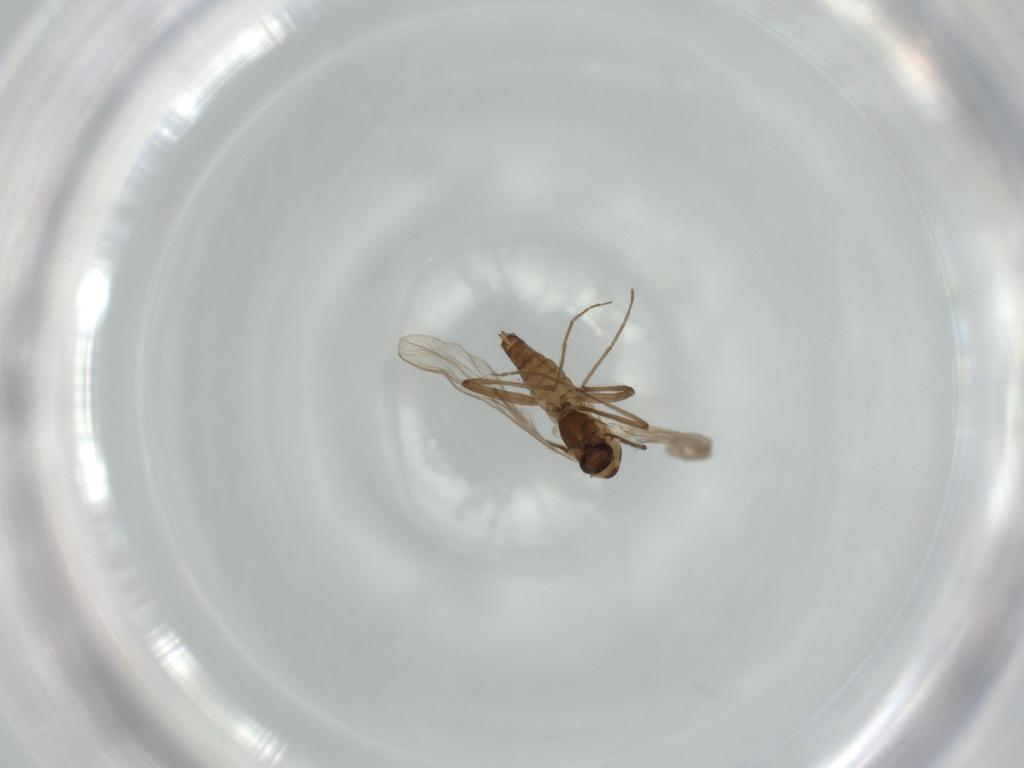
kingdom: Animalia
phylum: Arthropoda
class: Insecta
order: Diptera
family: Chironomidae
